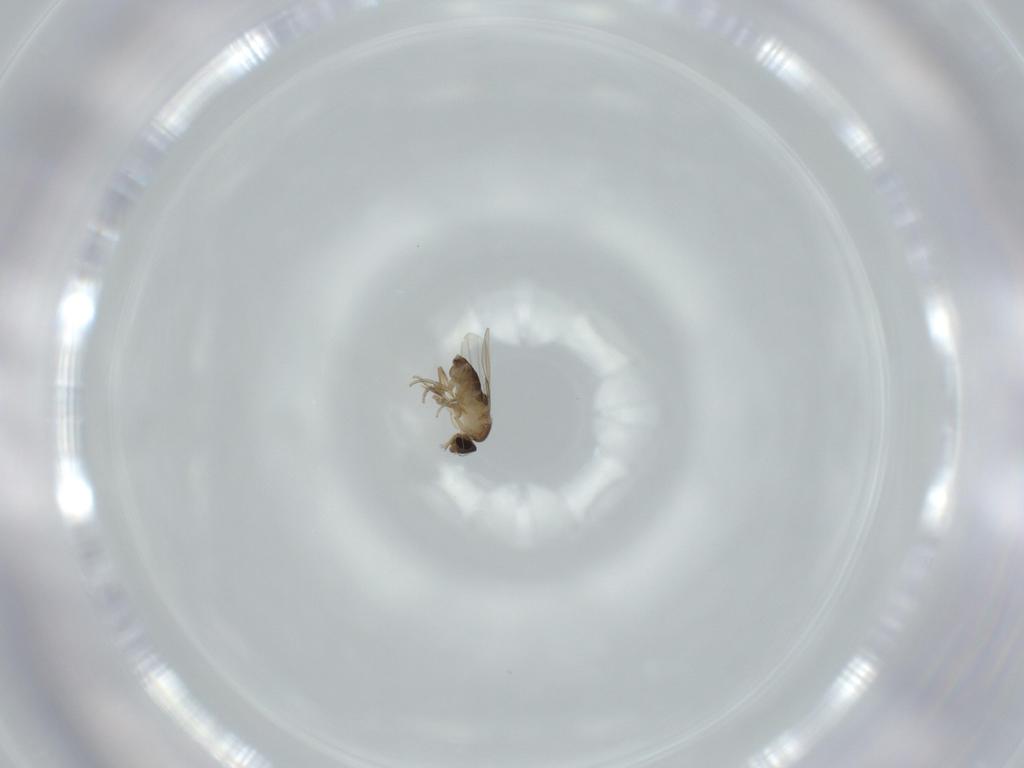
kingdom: Animalia
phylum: Arthropoda
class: Insecta
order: Diptera
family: Phoridae
